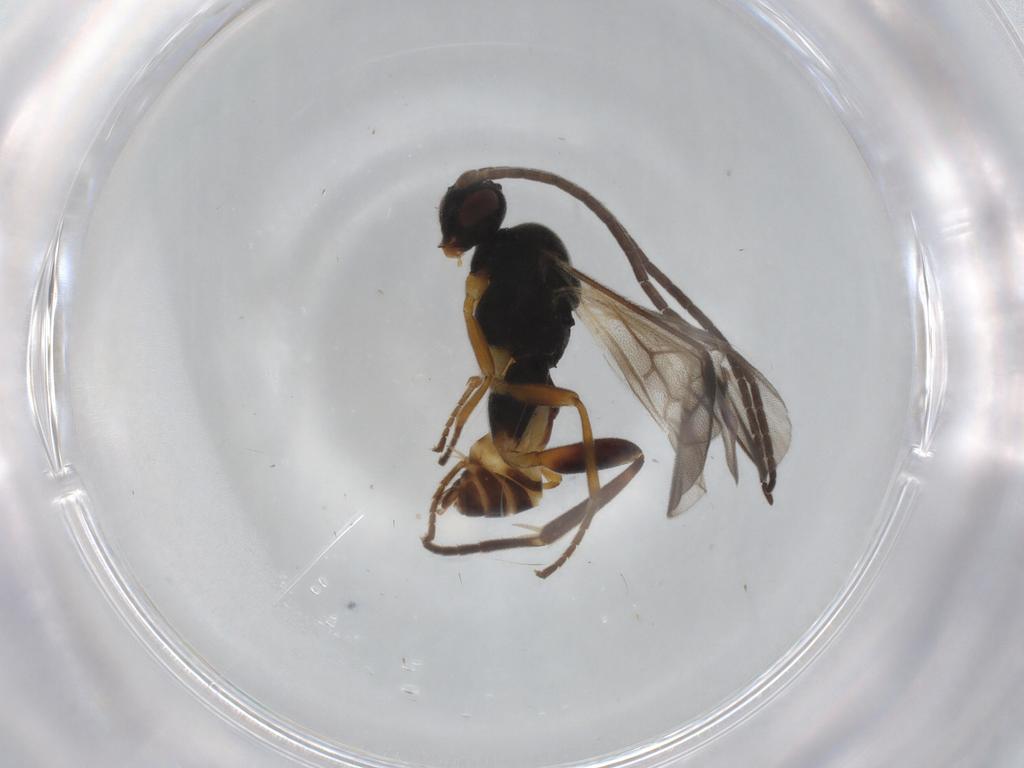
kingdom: Animalia
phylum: Arthropoda
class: Insecta
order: Hymenoptera
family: Braconidae
